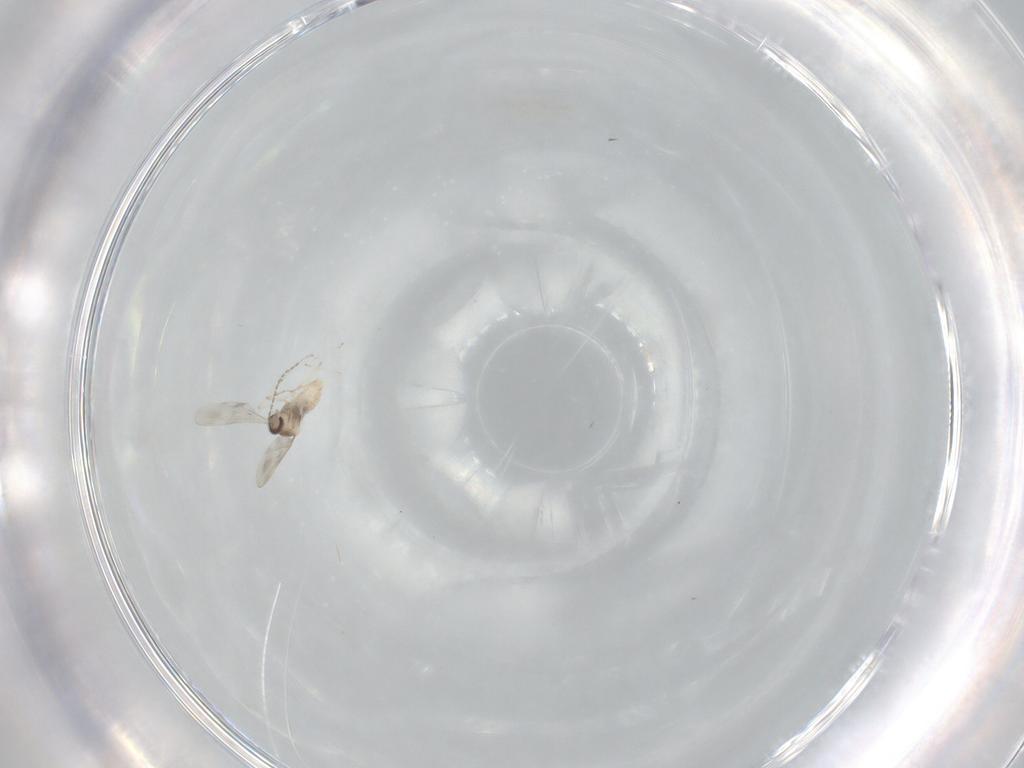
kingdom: Animalia
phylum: Arthropoda
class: Insecta
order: Diptera
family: Cecidomyiidae
